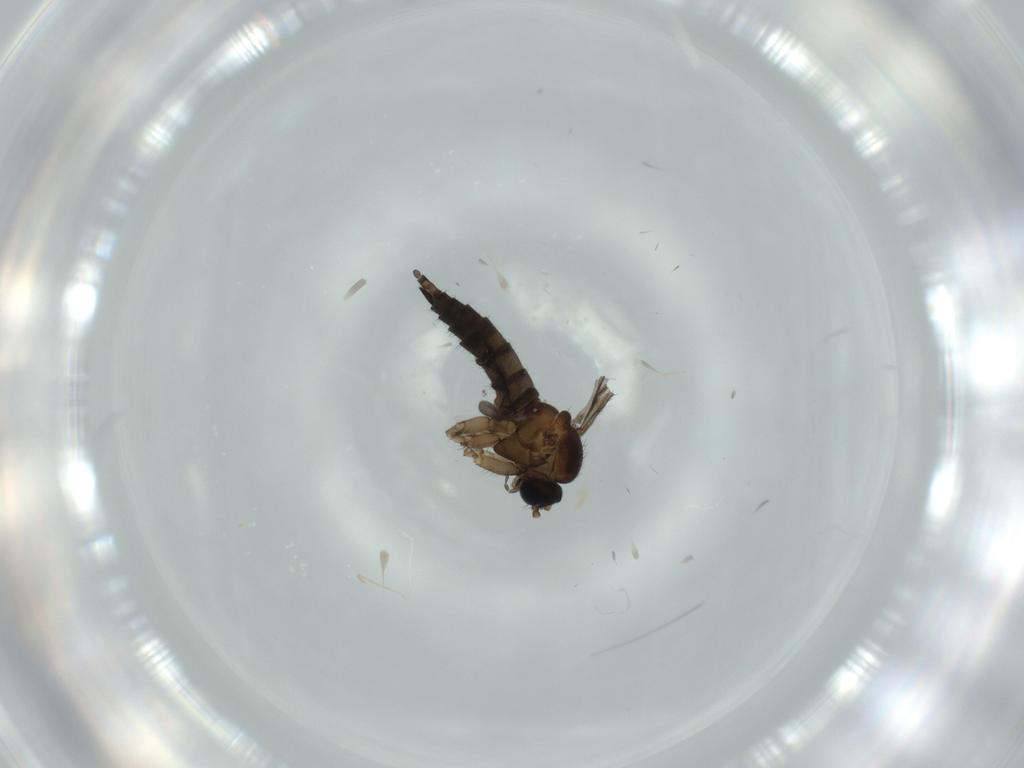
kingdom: Animalia
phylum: Arthropoda
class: Insecta
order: Diptera
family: Sciaridae
